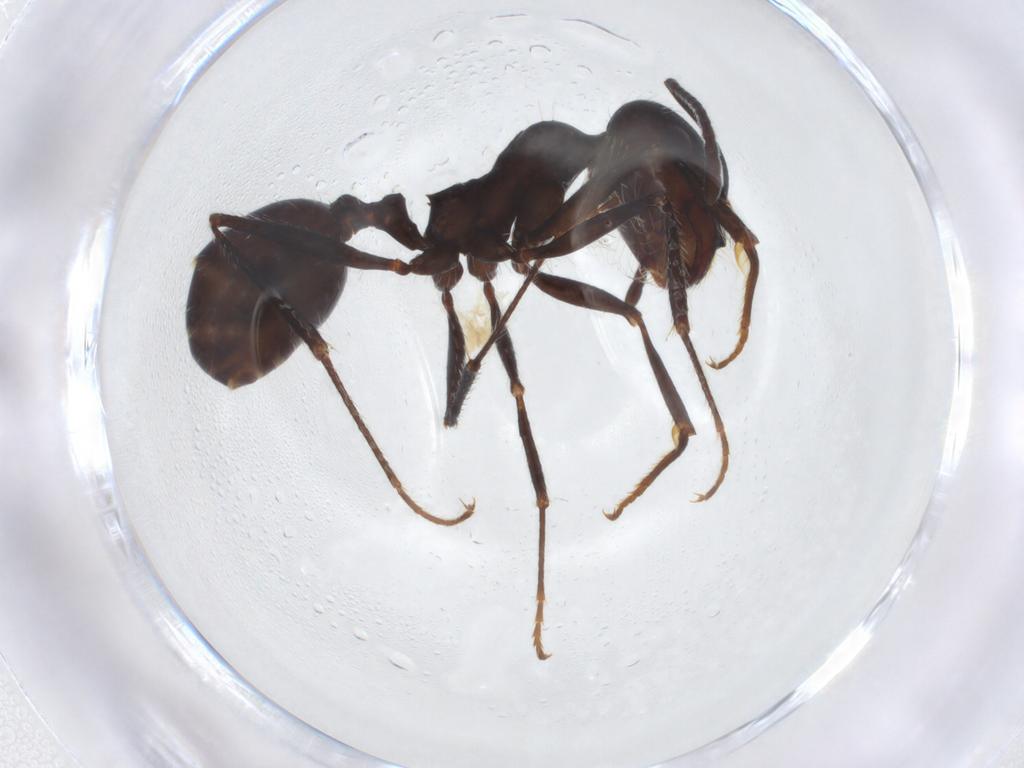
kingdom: Animalia
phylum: Arthropoda
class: Insecta
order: Hymenoptera
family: Formicidae
